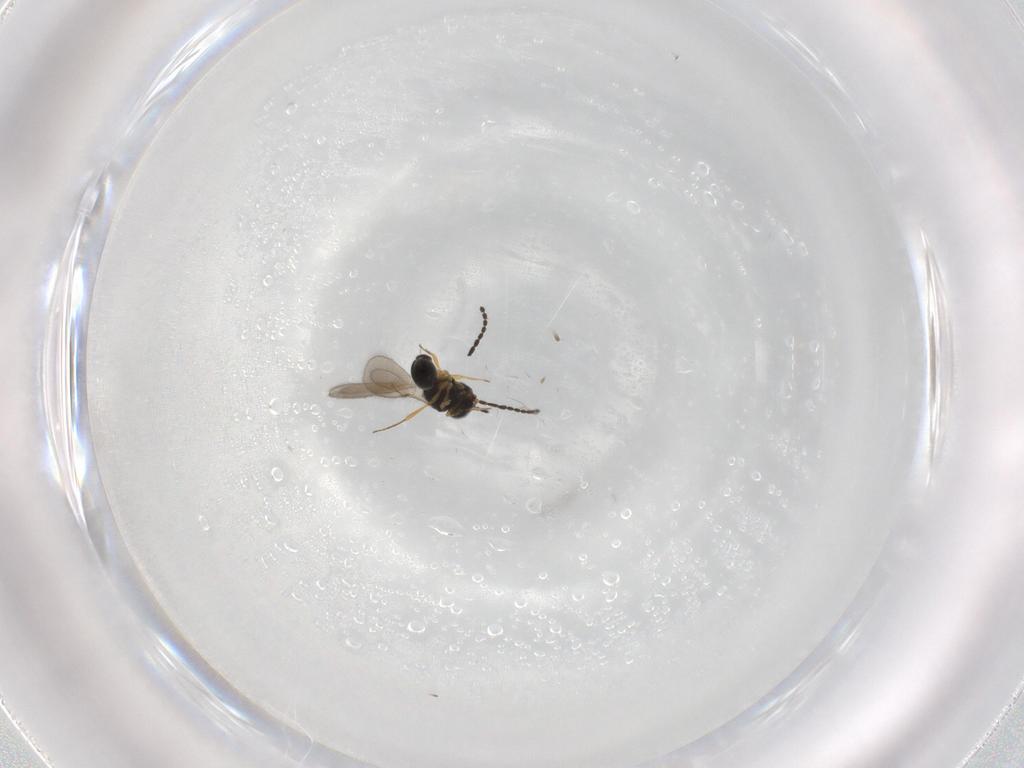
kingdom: Animalia
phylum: Arthropoda
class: Insecta
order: Hymenoptera
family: Scelionidae
